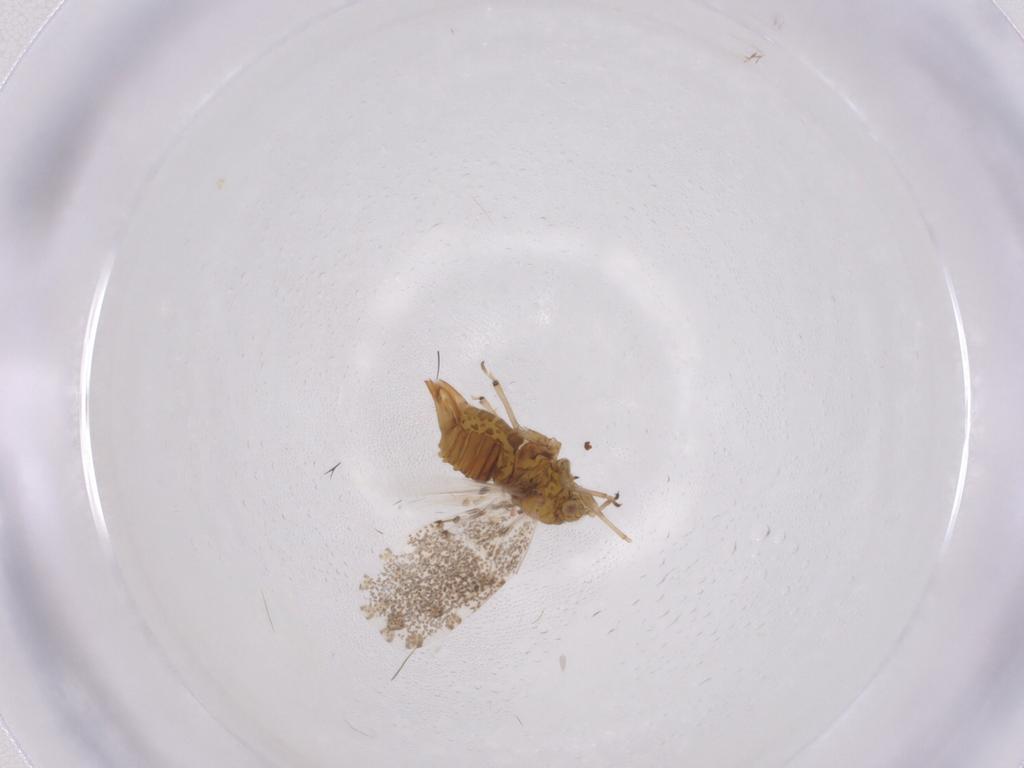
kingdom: Animalia
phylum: Arthropoda
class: Insecta
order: Hemiptera
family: Psylloidea_incertae_sedis
